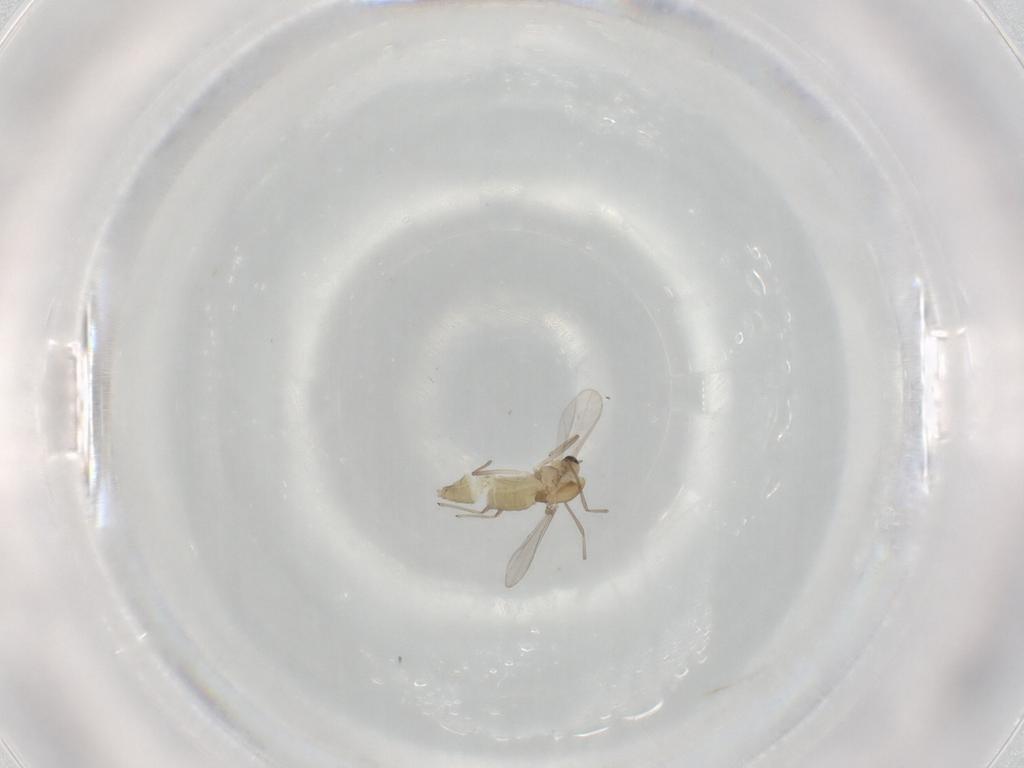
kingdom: Animalia
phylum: Arthropoda
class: Insecta
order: Diptera
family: Chironomidae
